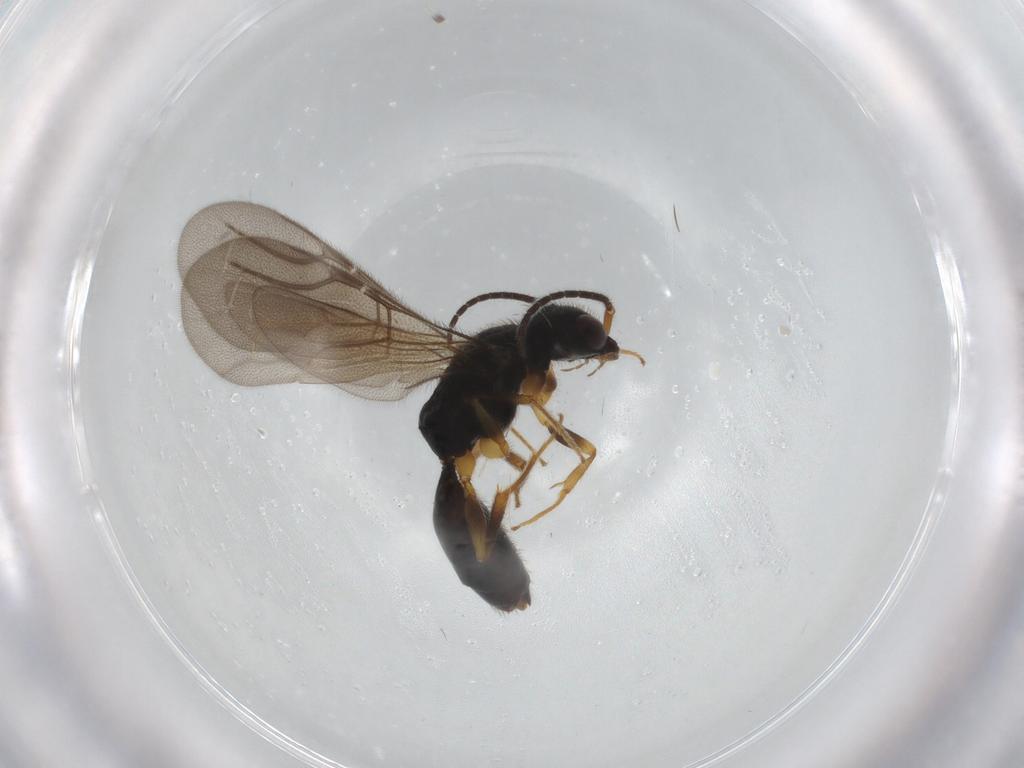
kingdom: Animalia
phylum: Arthropoda
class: Insecta
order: Hymenoptera
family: Bethylidae
